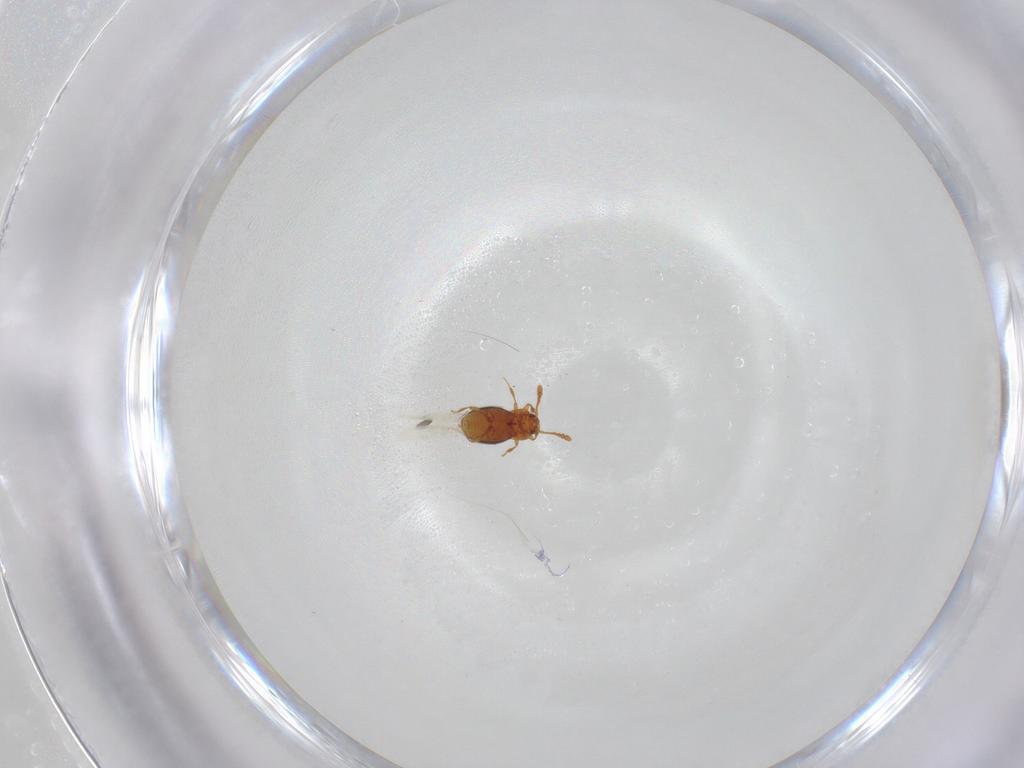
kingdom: Animalia
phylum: Arthropoda
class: Insecta
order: Coleoptera
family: Staphylinidae
